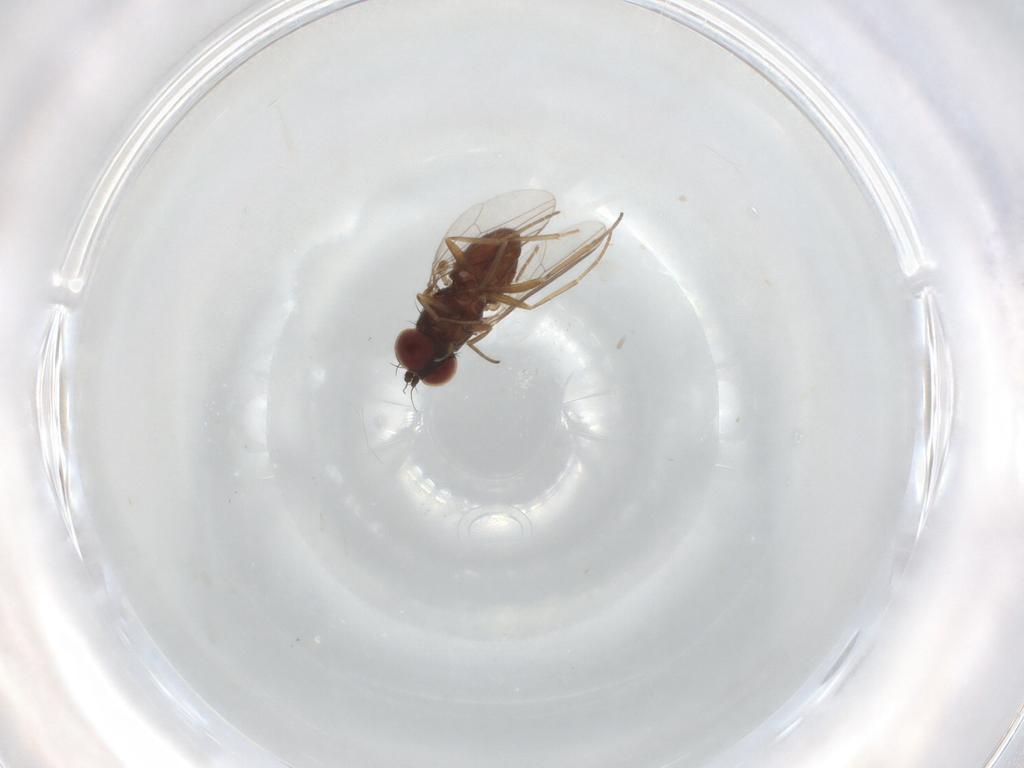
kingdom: Animalia
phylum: Arthropoda
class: Insecta
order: Diptera
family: Dolichopodidae
